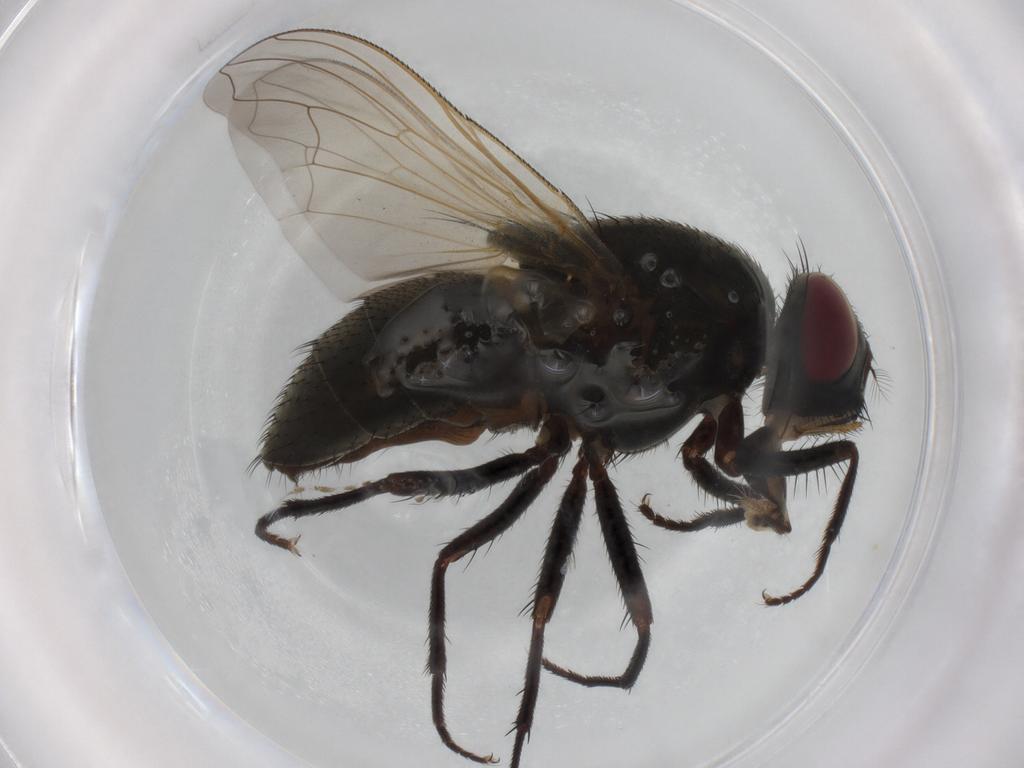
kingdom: Animalia
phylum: Arthropoda
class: Insecta
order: Diptera
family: Muscidae
